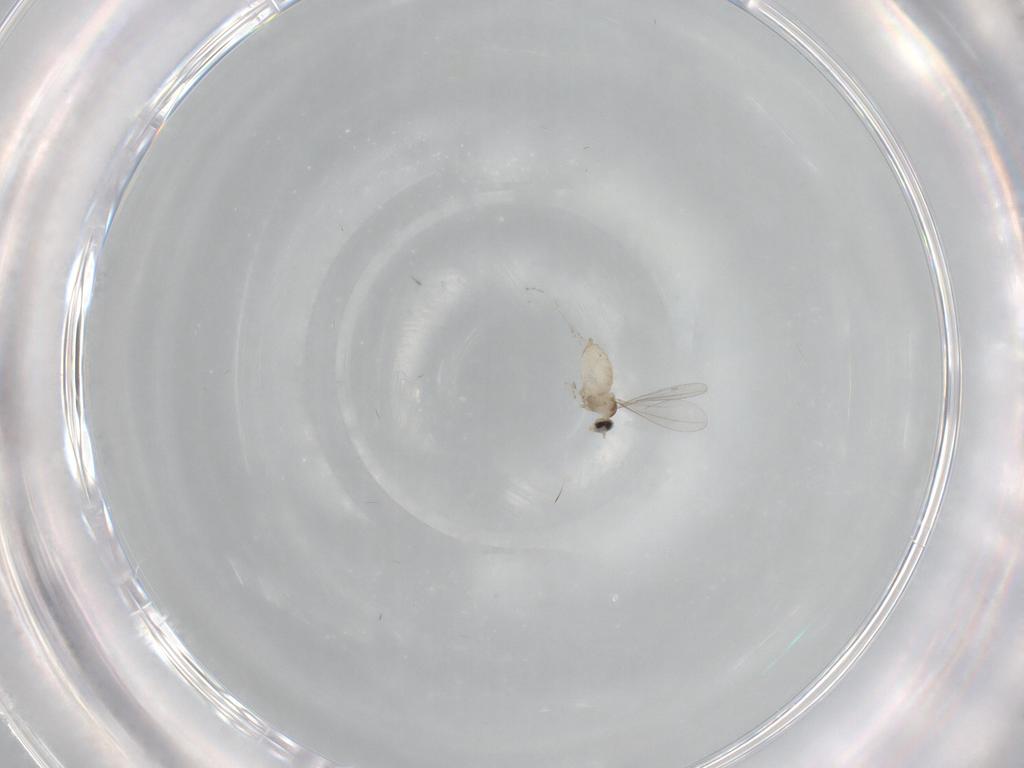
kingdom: Animalia
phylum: Arthropoda
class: Insecta
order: Diptera
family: Cecidomyiidae
